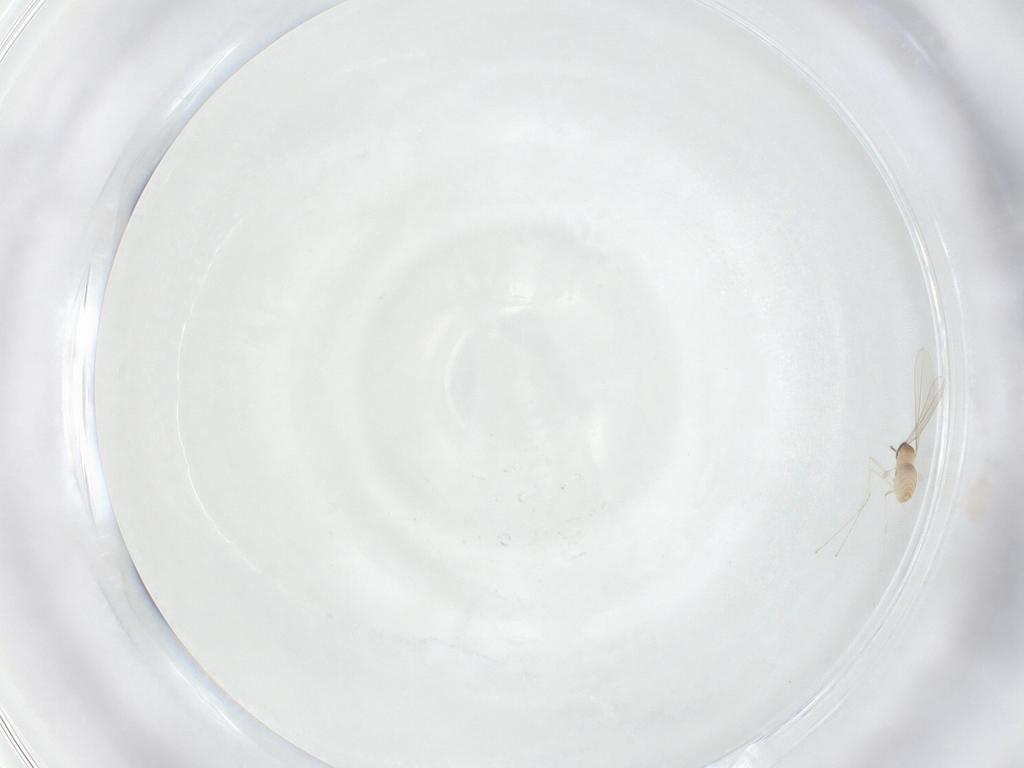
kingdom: Animalia
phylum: Arthropoda
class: Insecta
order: Diptera
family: Cecidomyiidae
